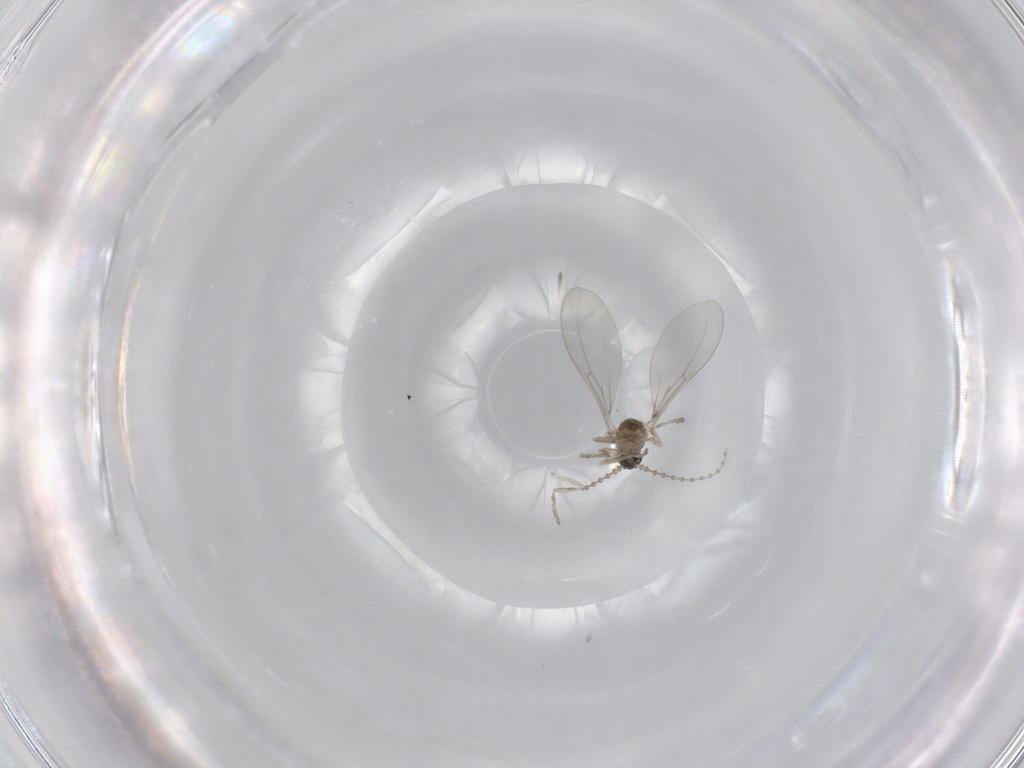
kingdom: Animalia
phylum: Arthropoda
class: Insecta
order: Diptera
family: Cecidomyiidae
